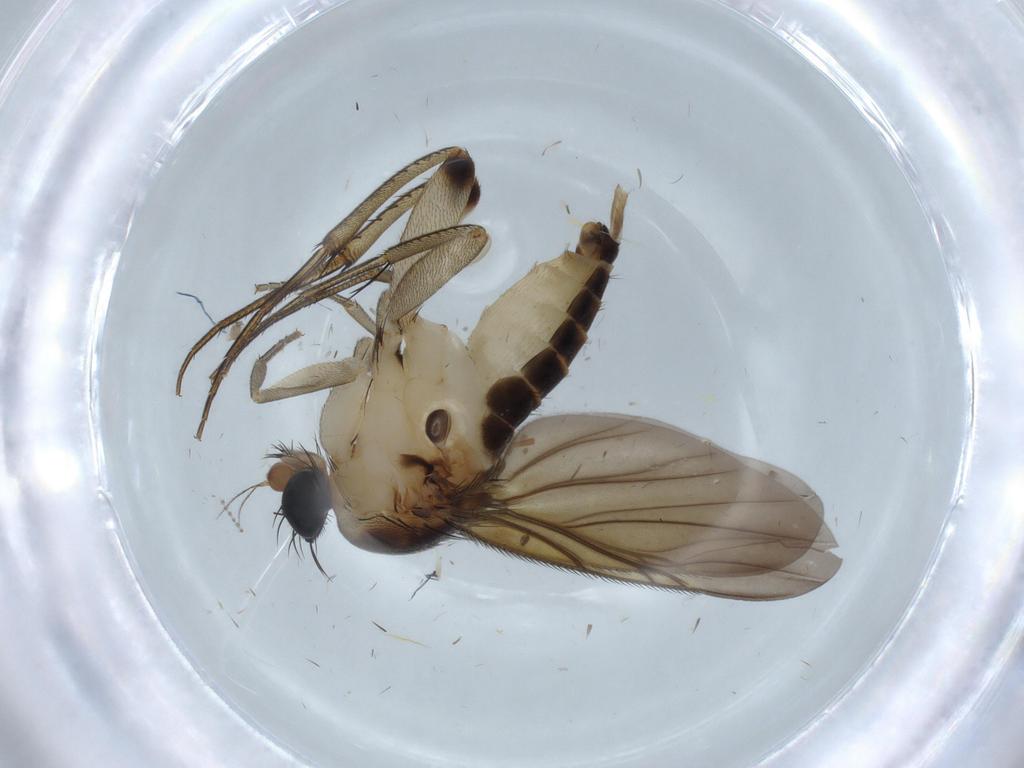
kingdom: Animalia
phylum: Arthropoda
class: Insecta
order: Diptera
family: Phoridae
